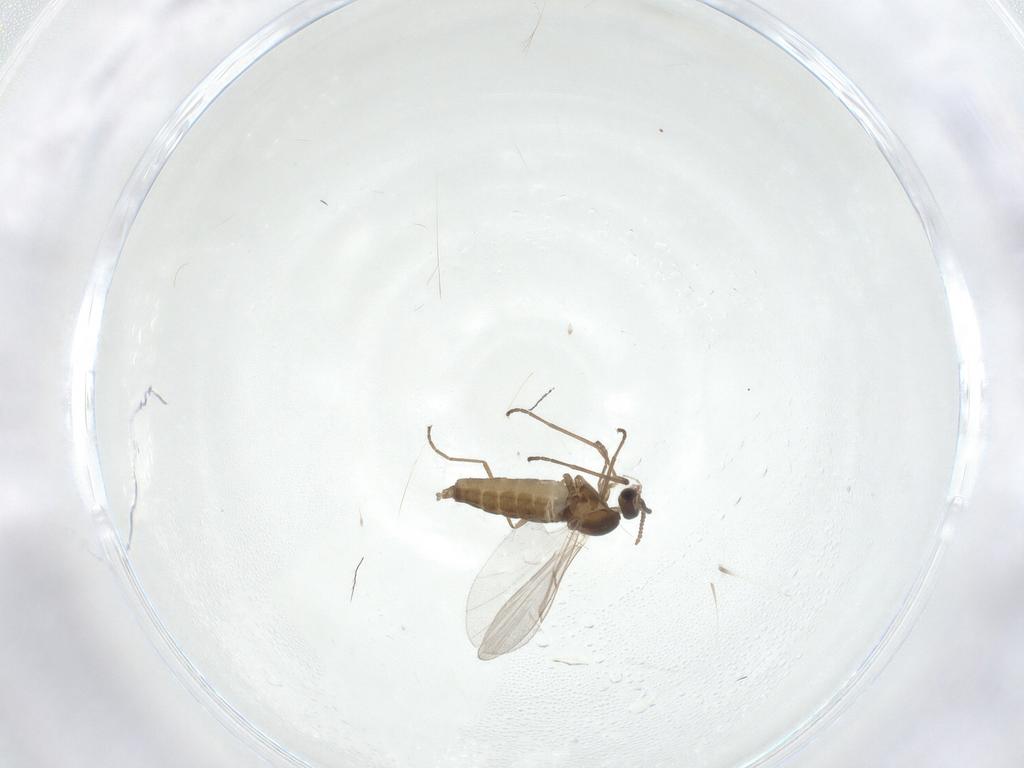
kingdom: Animalia
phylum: Arthropoda
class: Insecta
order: Diptera
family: Cecidomyiidae
